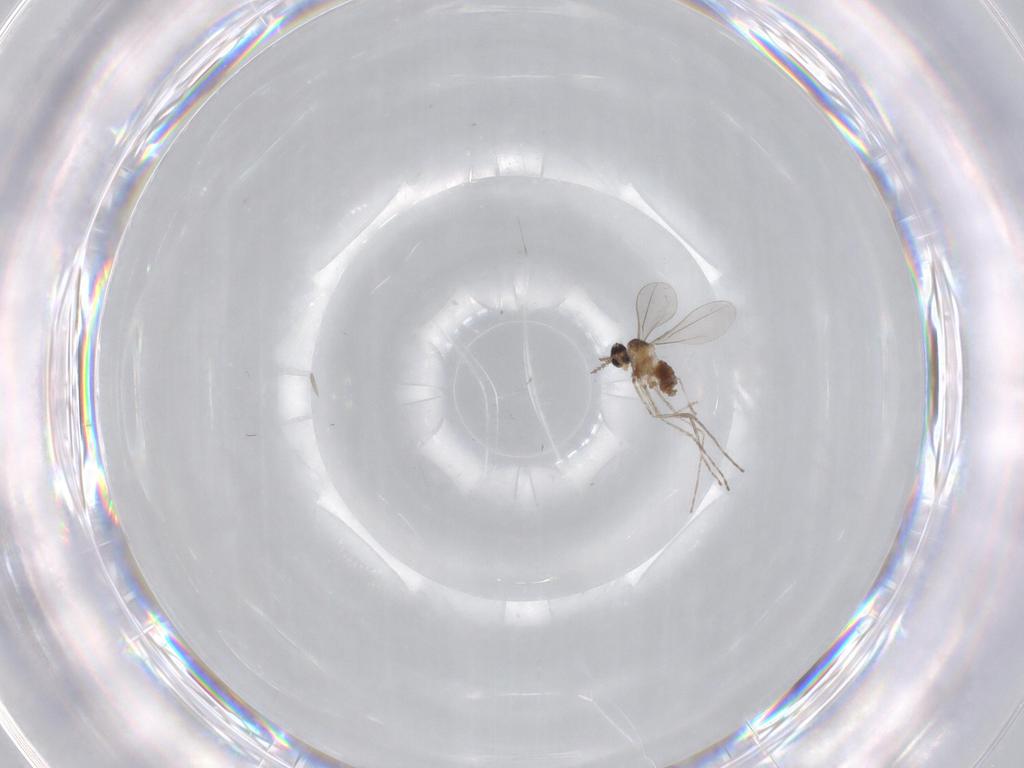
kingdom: Animalia
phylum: Arthropoda
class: Insecta
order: Diptera
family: Cecidomyiidae
